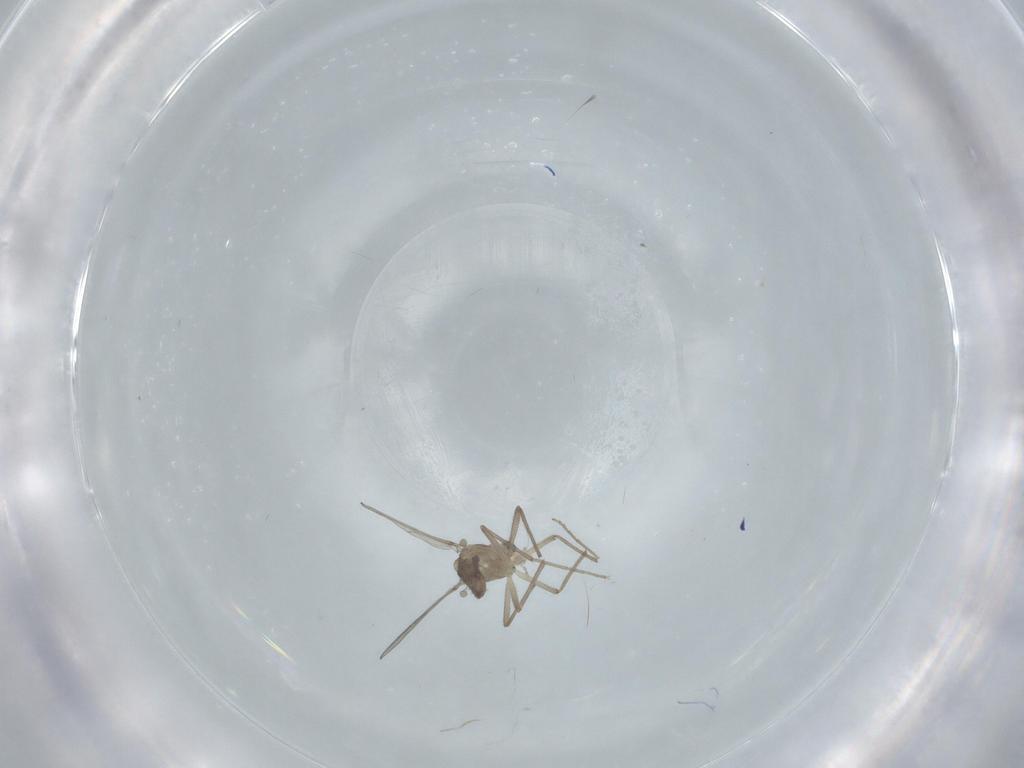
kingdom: Animalia
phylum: Arthropoda
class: Insecta
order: Diptera
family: Chironomidae
